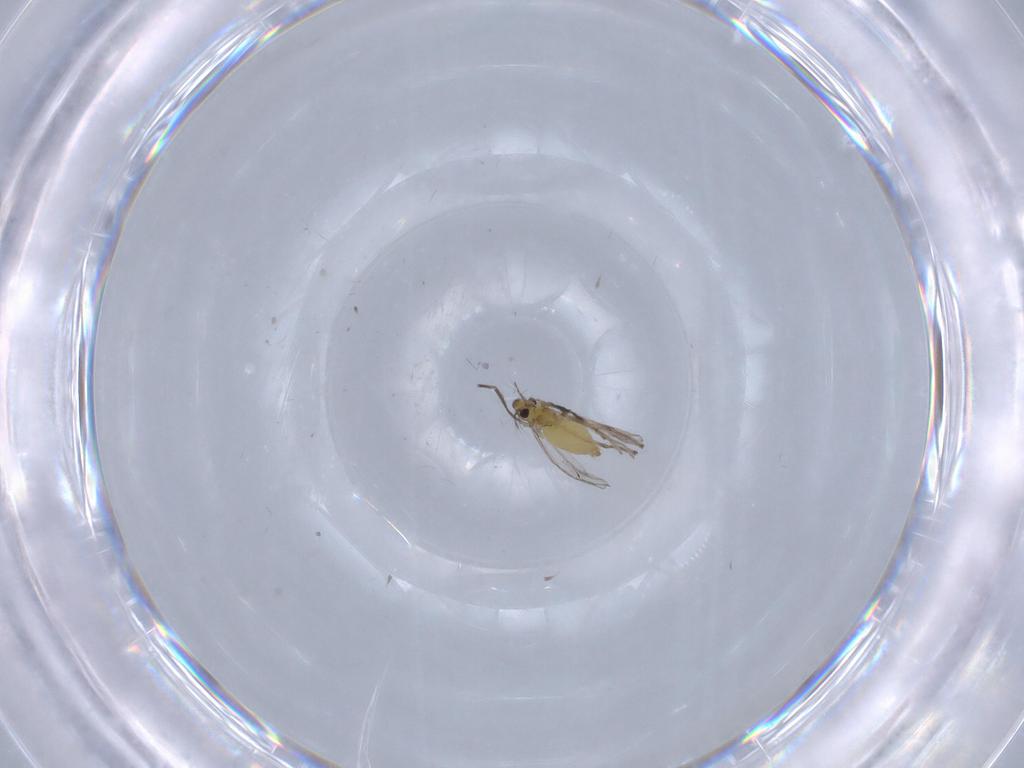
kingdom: Animalia
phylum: Arthropoda
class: Insecta
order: Diptera
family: Chironomidae
